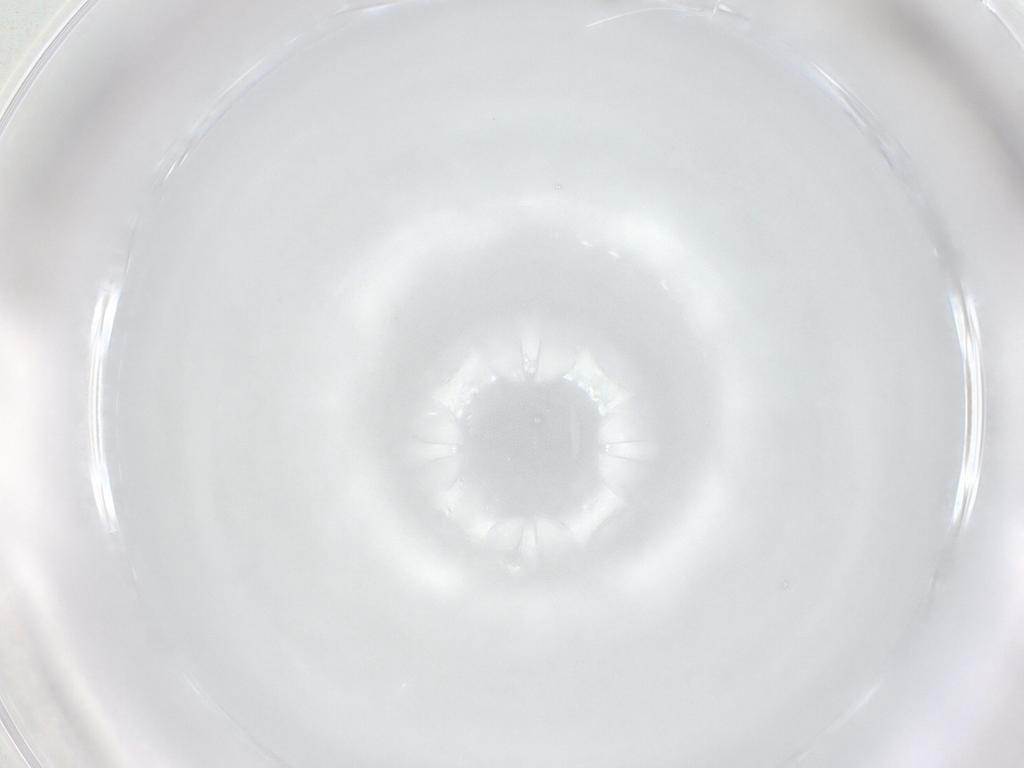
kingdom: Animalia
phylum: Arthropoda
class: Insecta
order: Diptera
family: Cecidomyiidae
